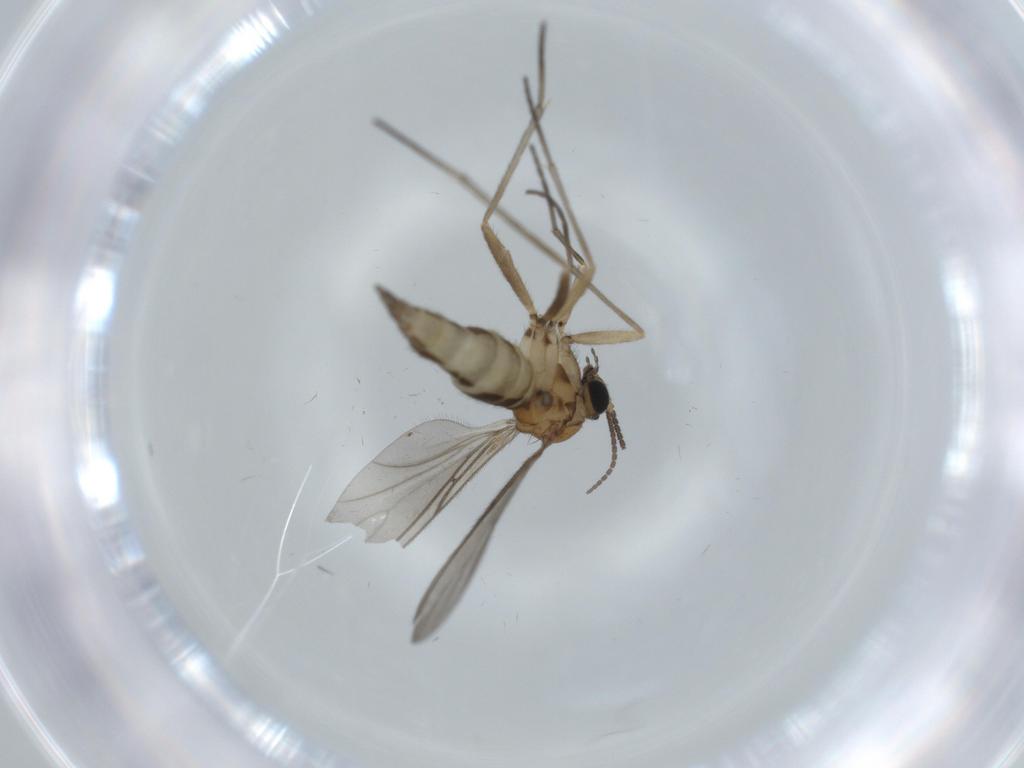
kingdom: Animalia
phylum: Arthropoda
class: Insecta
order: Diptera
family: Sciaridae
